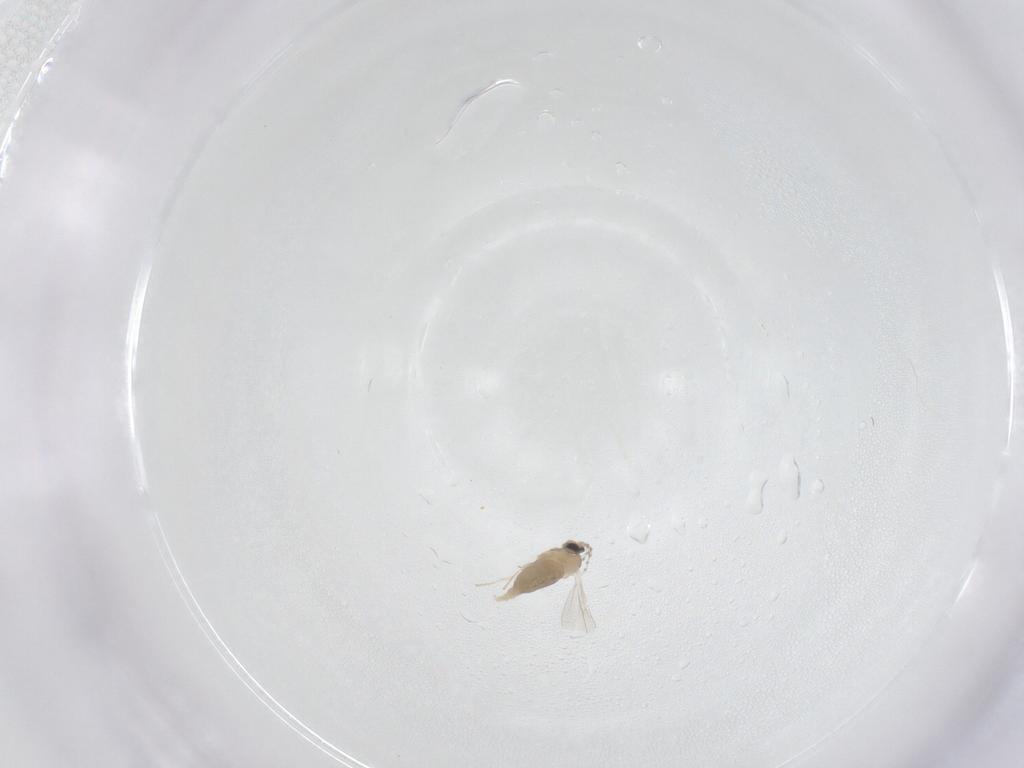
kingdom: Animalia
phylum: Arthropoda
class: Insecta
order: Diptera
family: Cecidomyiidae
